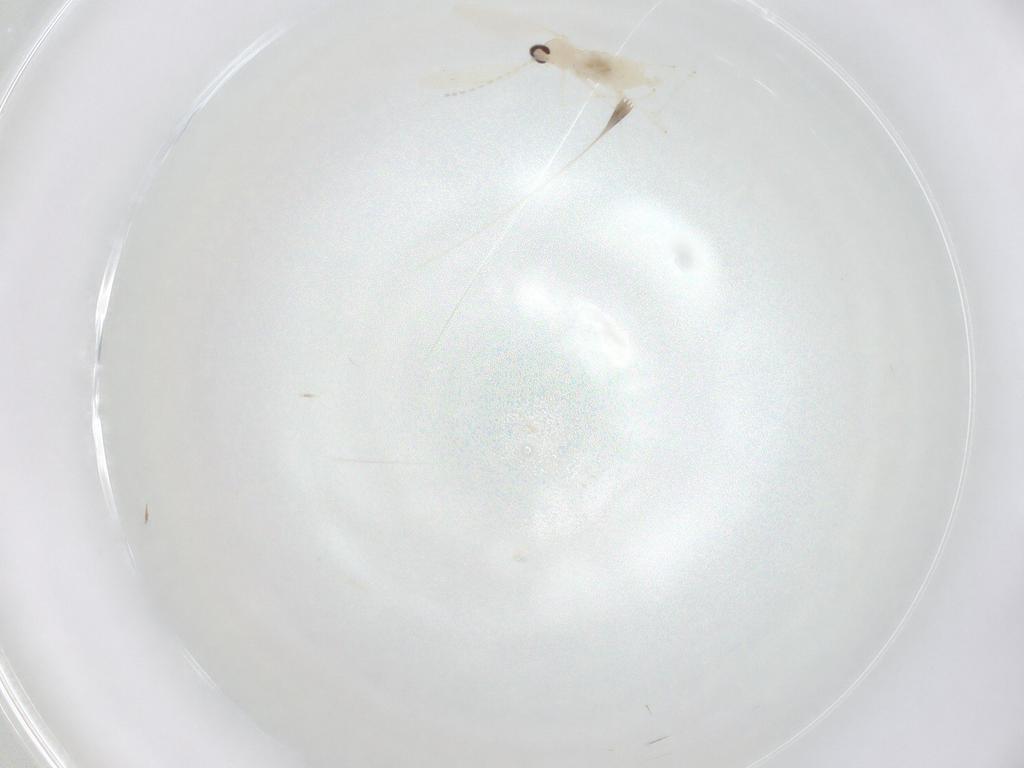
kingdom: Animalia
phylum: Arthropoda
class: Insecta
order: Diptera
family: Cecidomyiidae
